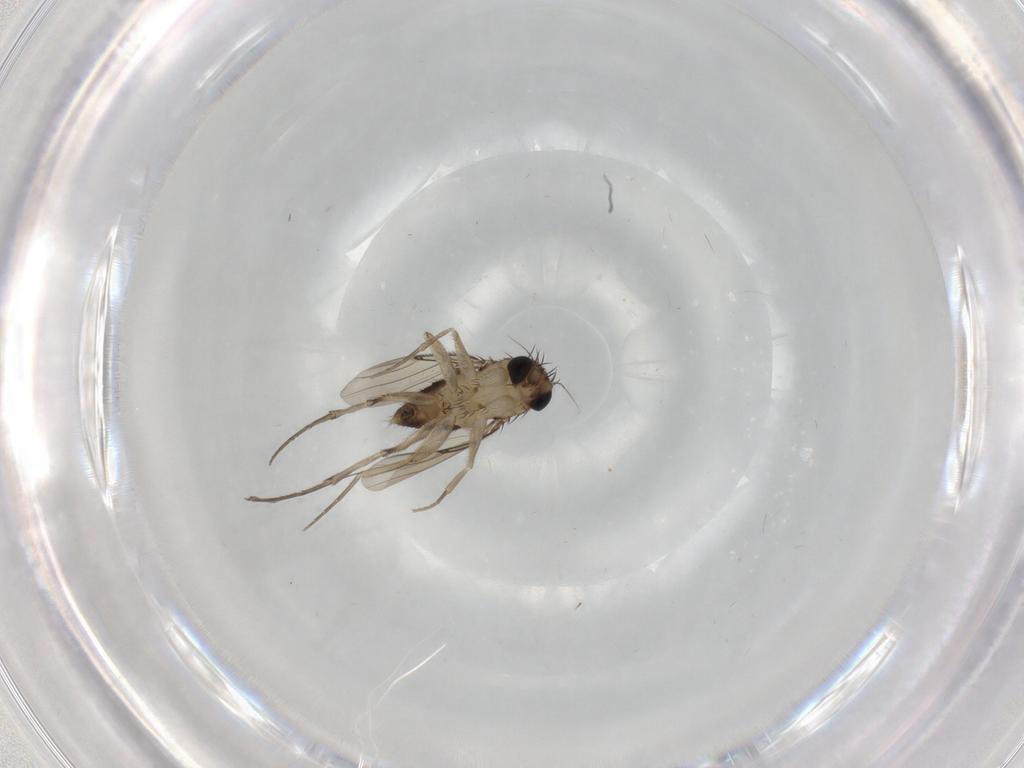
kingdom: Animalia
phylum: Arthropoda
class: Insecta
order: Diptera
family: Phoridae
